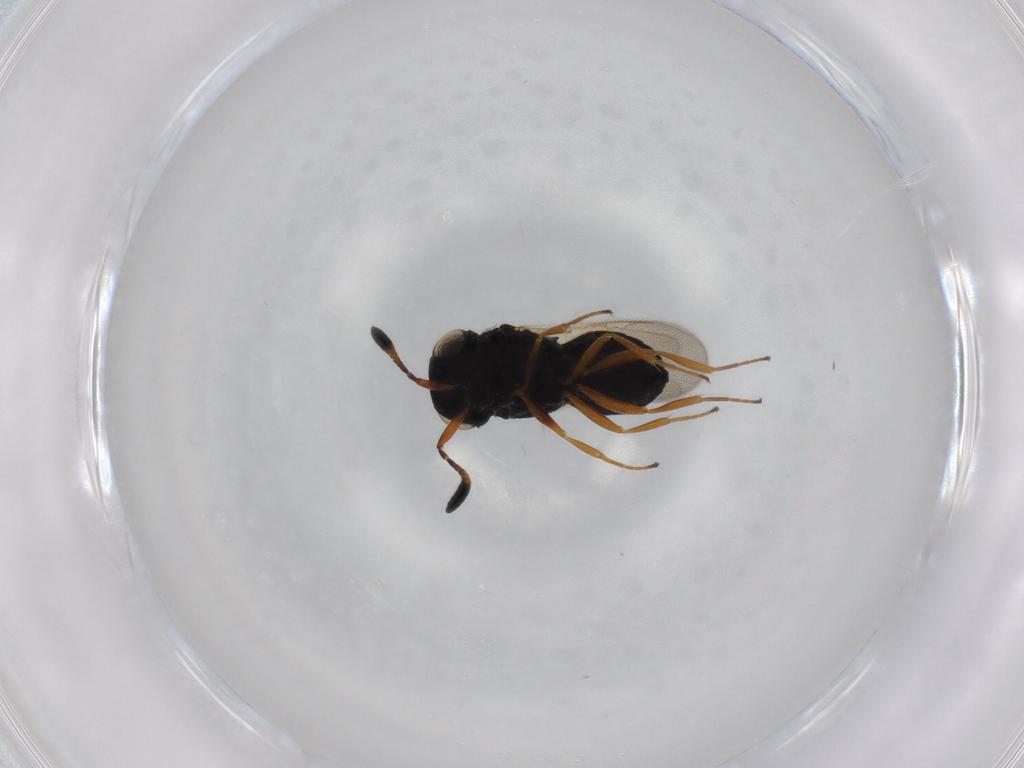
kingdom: Animalia
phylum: Arthropoda
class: Insecta
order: Hymenoptera
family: Scelionidae
